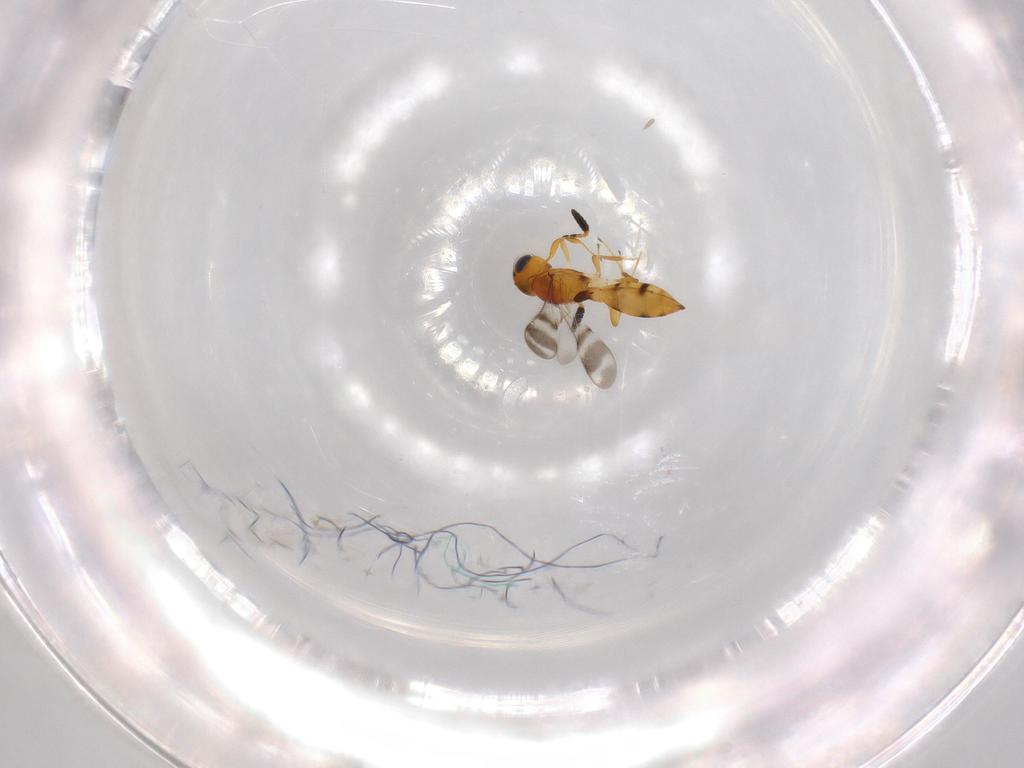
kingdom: Animalia
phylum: Arthropoda
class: Insecta
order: Hymenoptera
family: Scelionidae
